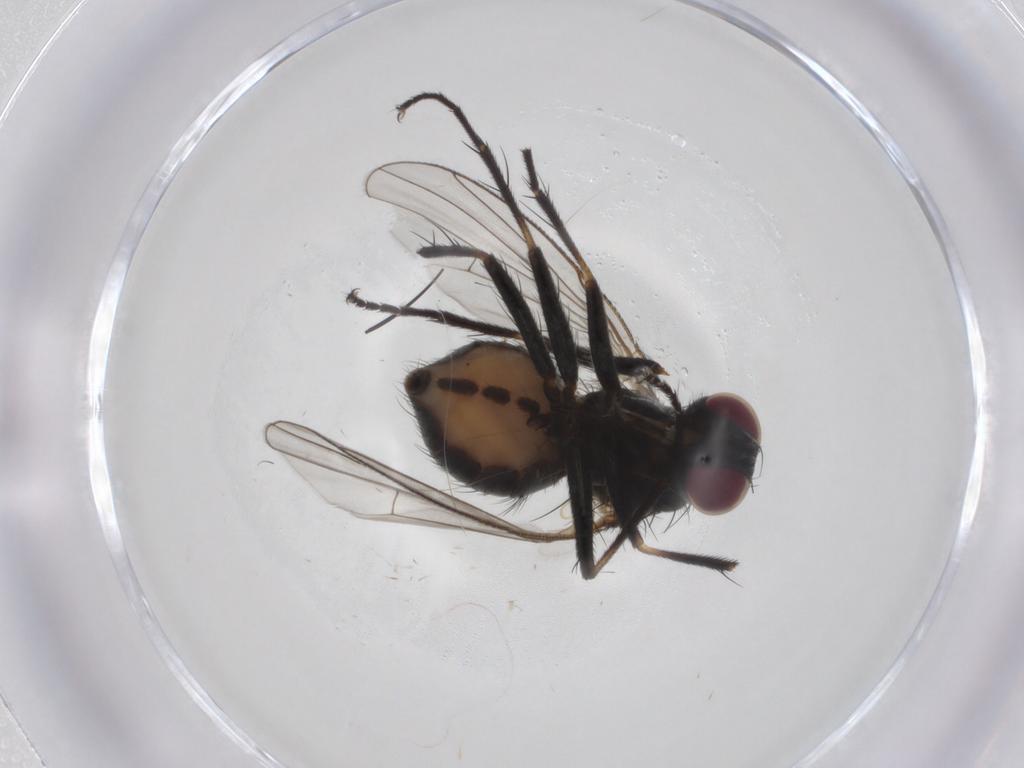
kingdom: Animalia
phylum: Arthropoda
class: Insecta
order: Diptera
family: Muscidae
